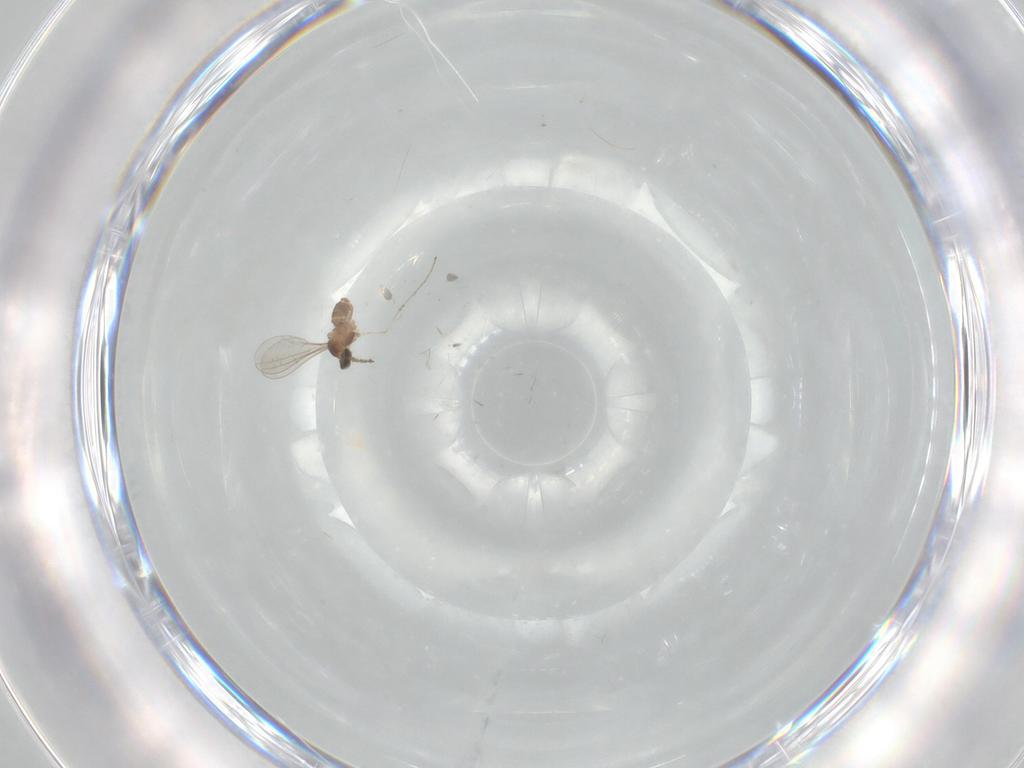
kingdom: Animalia
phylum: Arthropoda
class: Insecta
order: Diptera
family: Cecidomyiidae
